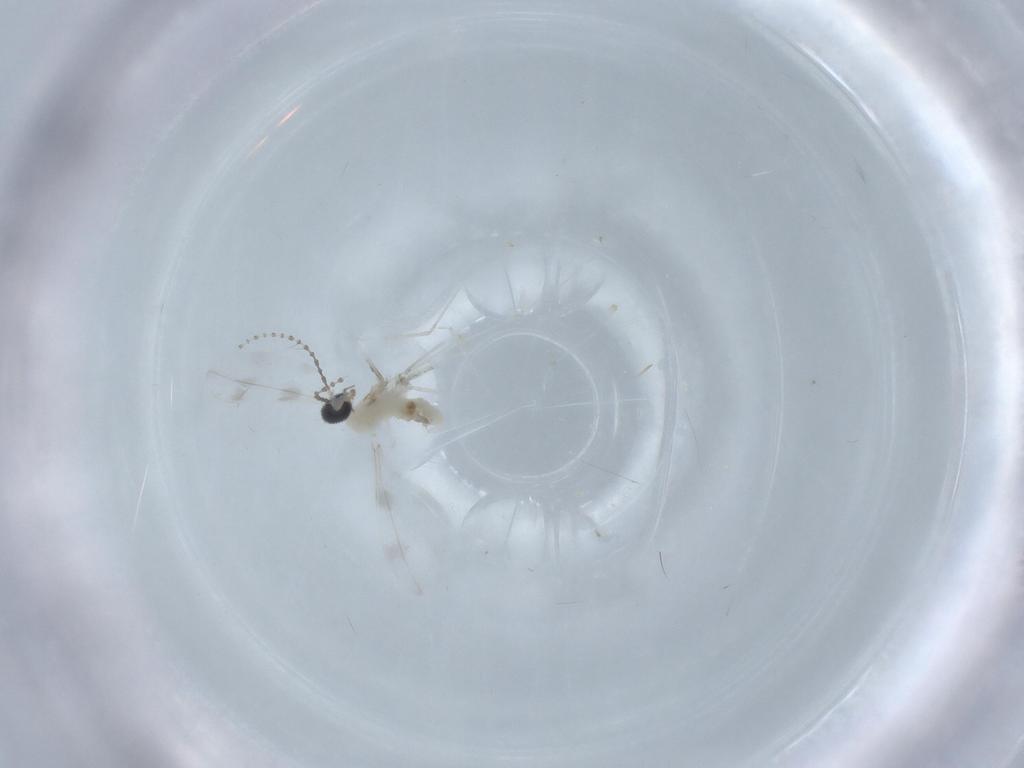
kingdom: Animalia
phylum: Arthropoda
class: Insecta
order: Diptera
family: Cecidomyiidae
